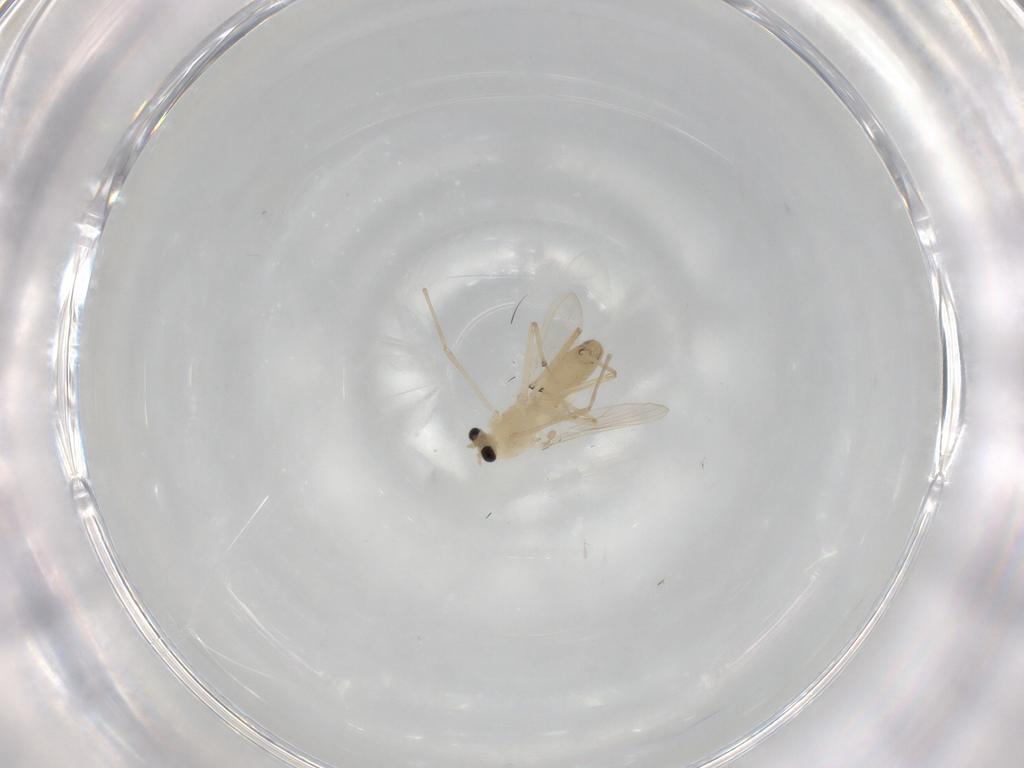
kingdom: Animalia
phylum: Arthropoda
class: Insecta
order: Diptera
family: Chironomidae
